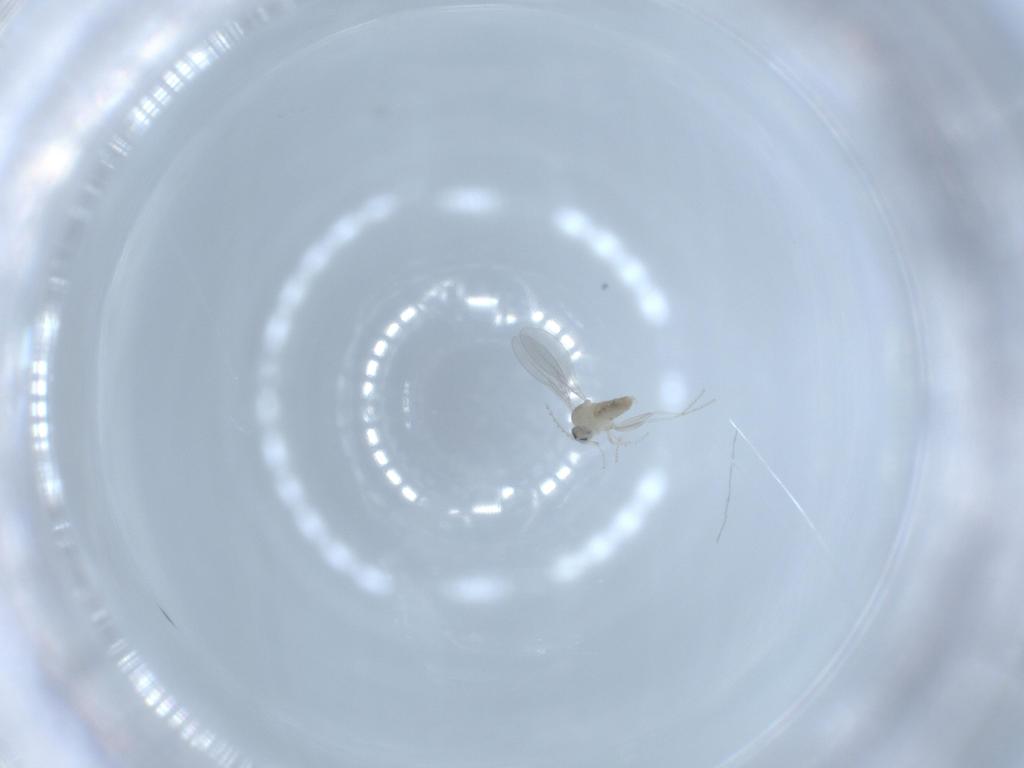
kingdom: Animalia
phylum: Arthropoda
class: Insecta
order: Diptera
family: Cecidomyiidae
